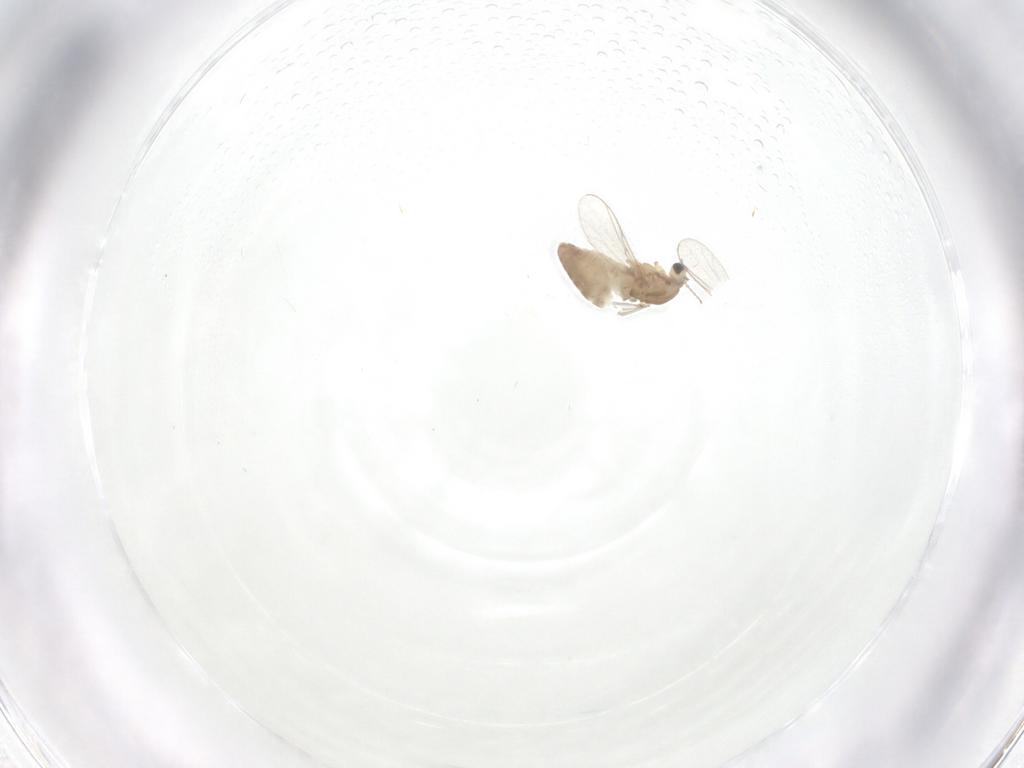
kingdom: Animalia
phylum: Arthropoda
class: Insecta
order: Diptera
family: Chironomidae
